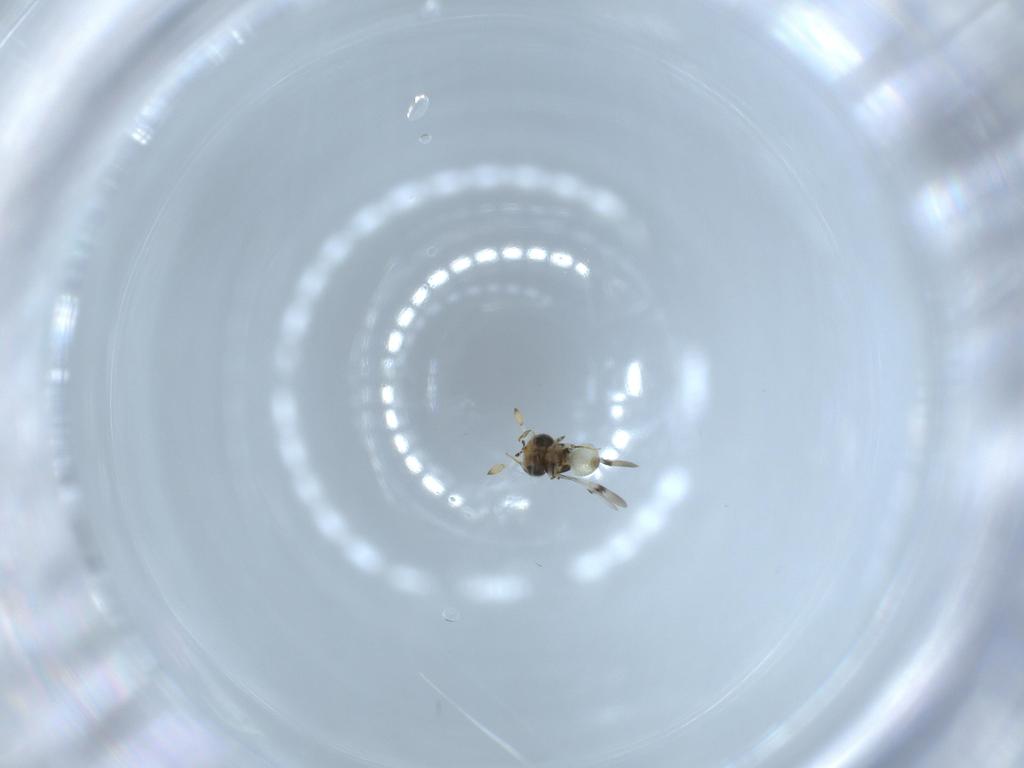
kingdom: Animalia
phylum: Arthropoda
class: Insecta
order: Hymenoptera
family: Scelionidae
